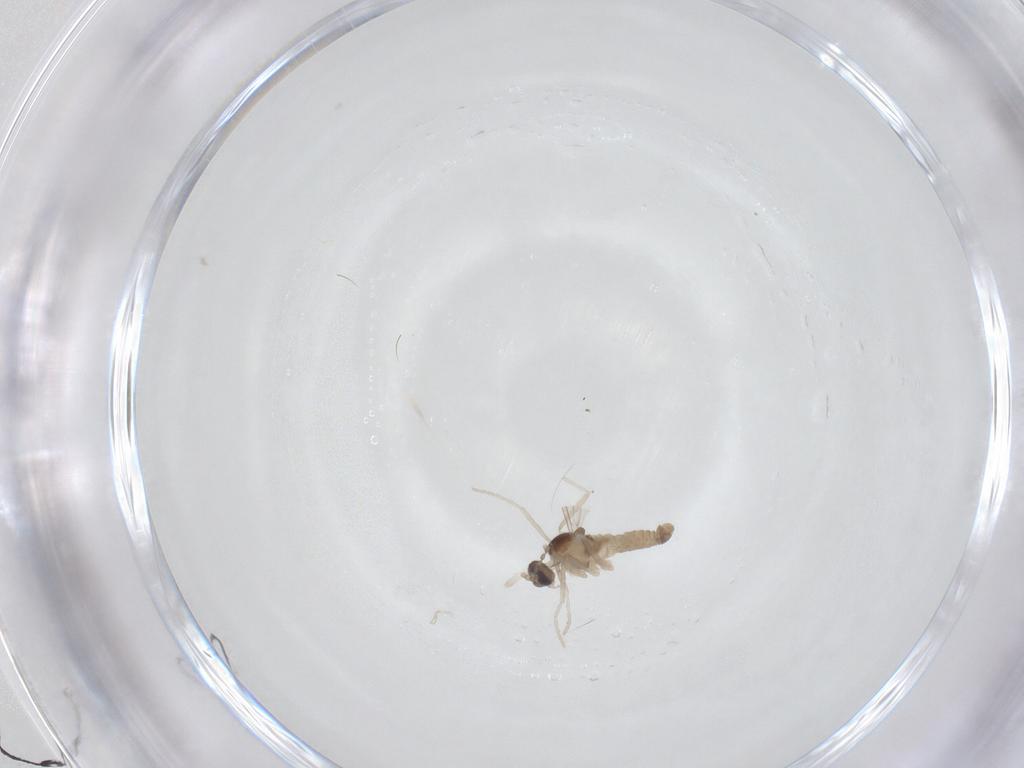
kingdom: Animalia
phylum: Arthropoda
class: Insecta
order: Diptera
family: Cecidomyiidae
